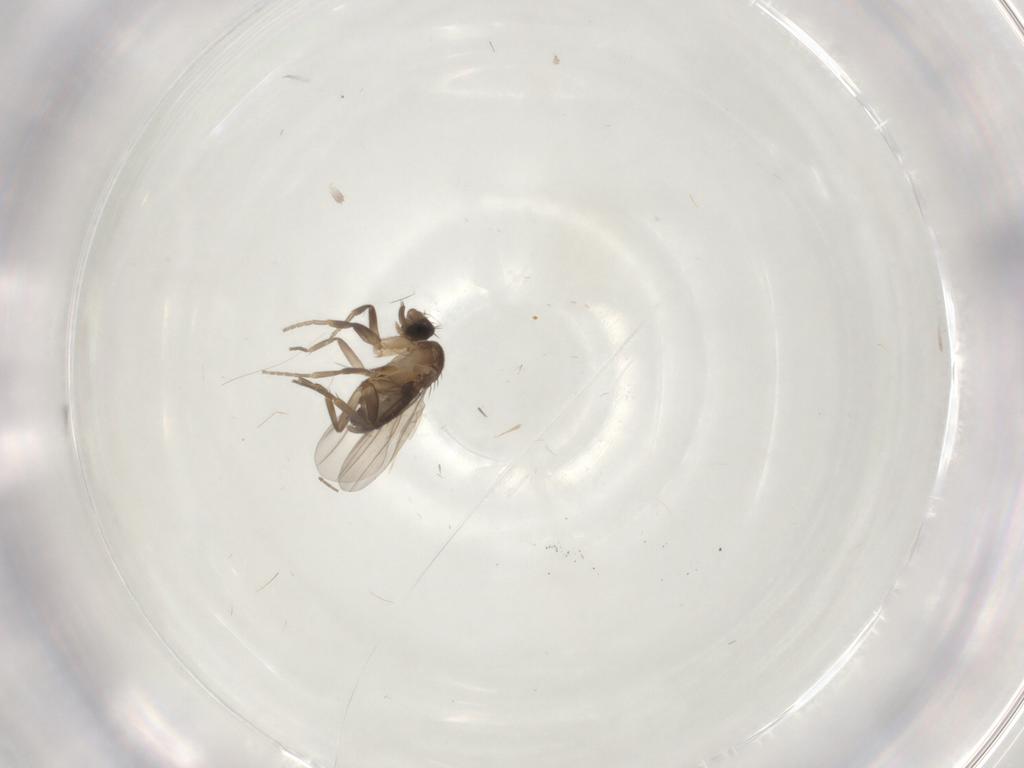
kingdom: Animalia
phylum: Arthropoda
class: Insecta
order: Diptera
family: Phoridae
